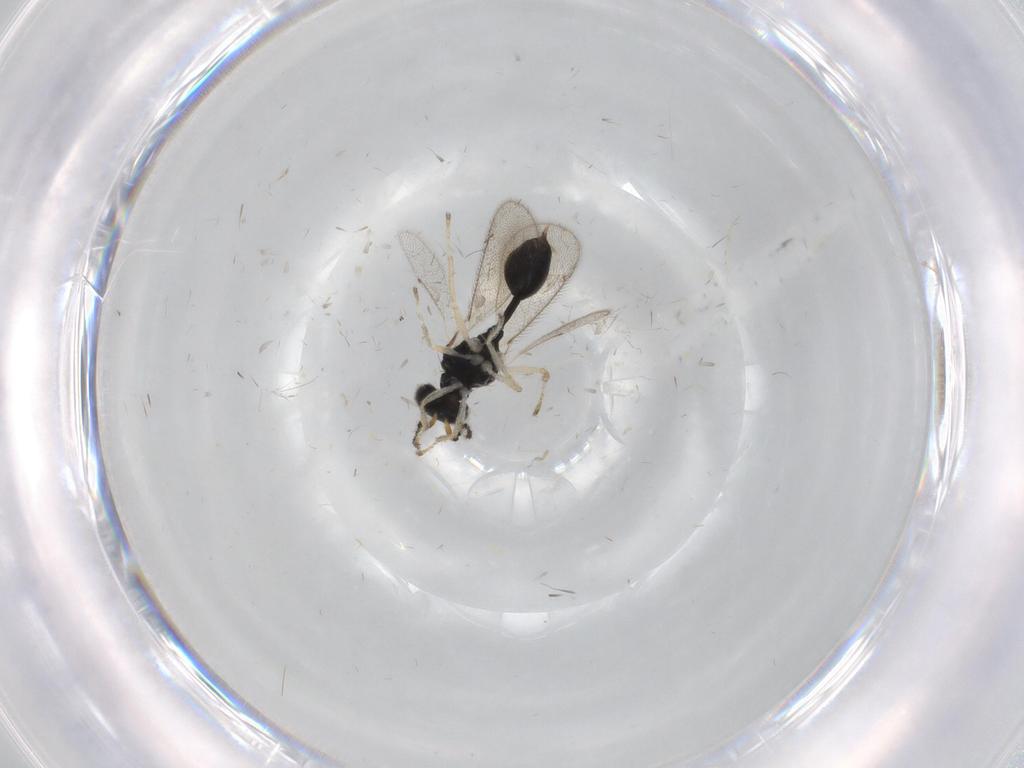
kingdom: Animalia
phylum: Arthropoda
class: Insecta
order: Hymenoptera
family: Eulophidae
